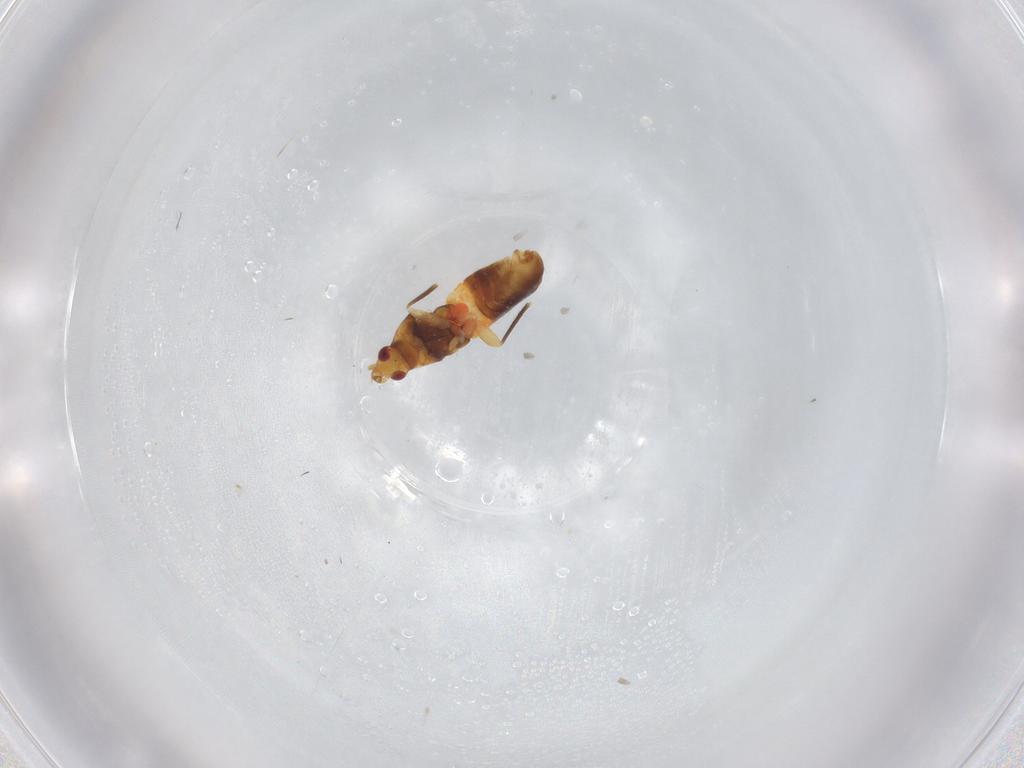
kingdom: Animalia
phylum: Arthropoda
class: Insecta
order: Hemiptera
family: Anthocoridae
